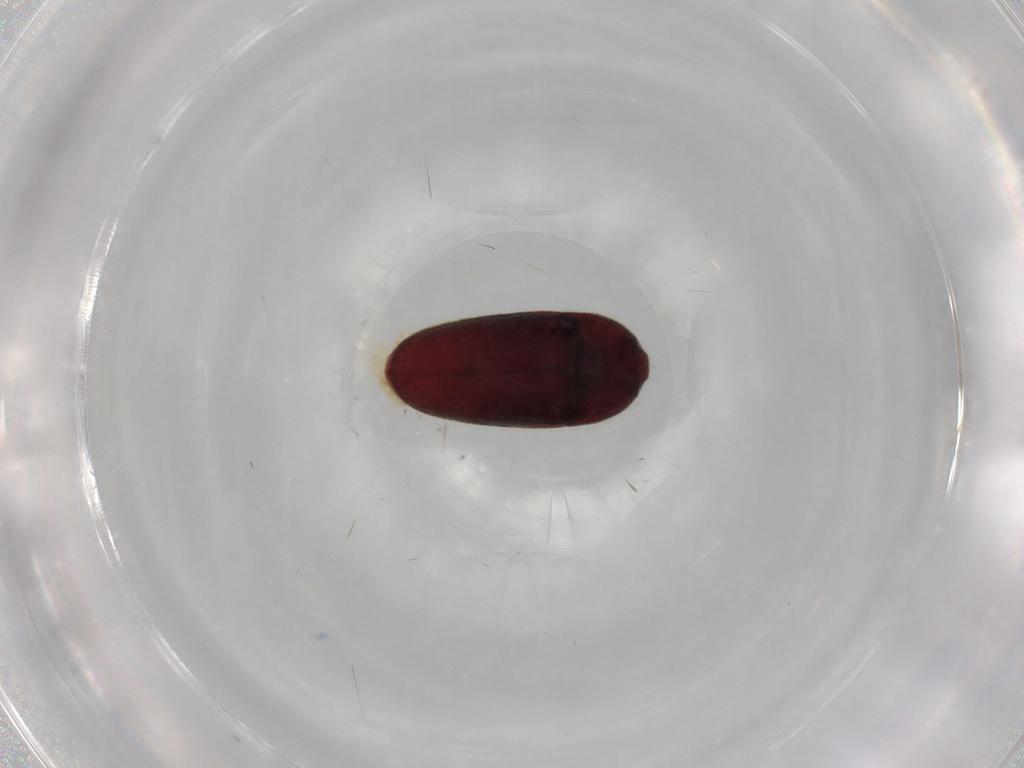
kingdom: Animalia
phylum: Arthropoda
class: Insecta
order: Coleoptera
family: Throscidae
